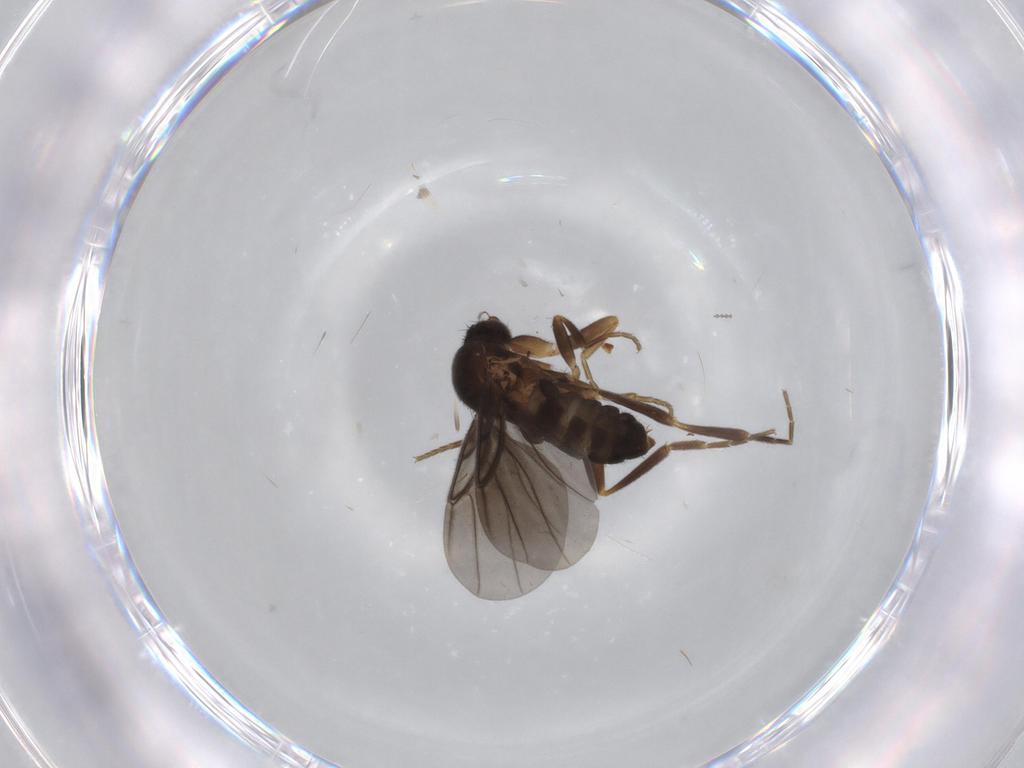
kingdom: Animalia
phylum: Arthropoda
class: Insecta
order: Diptera
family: Phoridae
